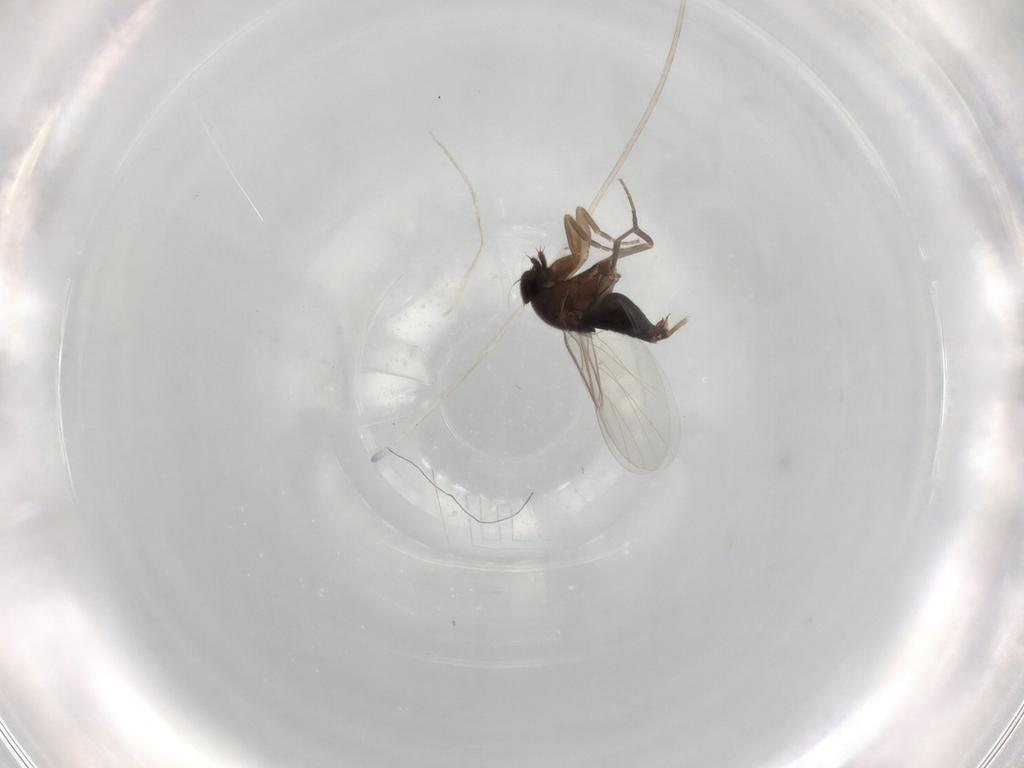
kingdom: Animalia
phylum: Arthropoda
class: Insecta
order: Diptera
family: Phoridae
